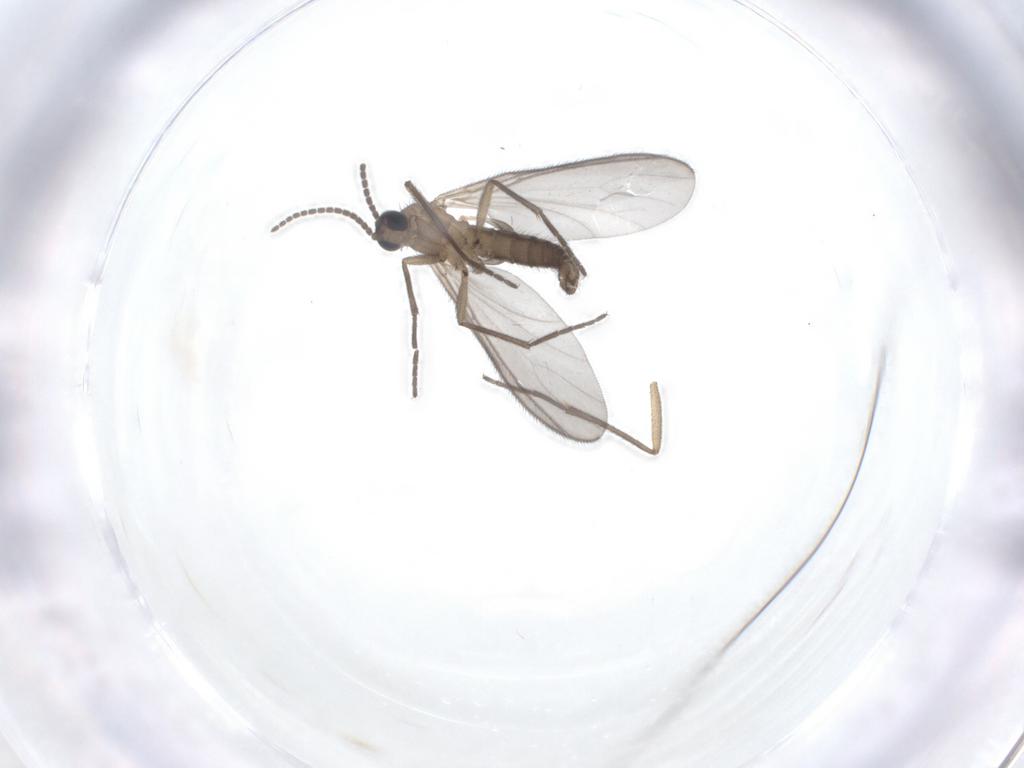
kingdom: Animalia
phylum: Arthropoda
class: Insecta
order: Diptera
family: Sciaridae
